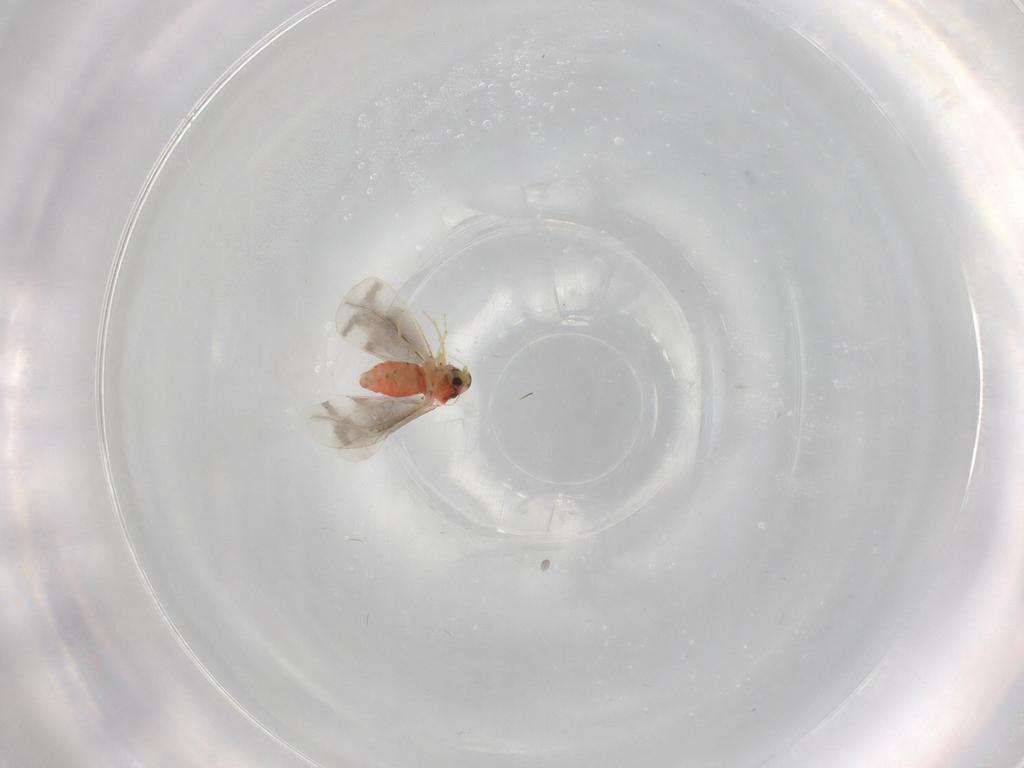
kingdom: Animalia
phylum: Arthropoda
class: Insecta
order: Hemiptera
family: Aleyrodidae
